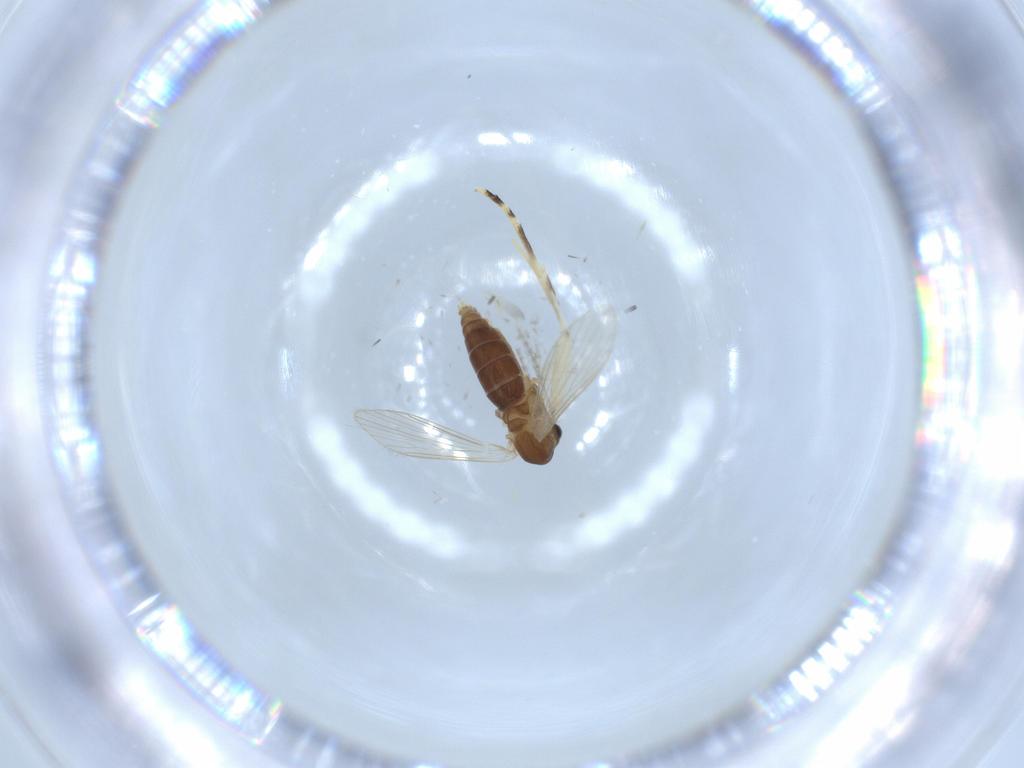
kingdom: Animalia
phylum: Arthropoda
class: Insecta
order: Diptera
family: Psychodidae
